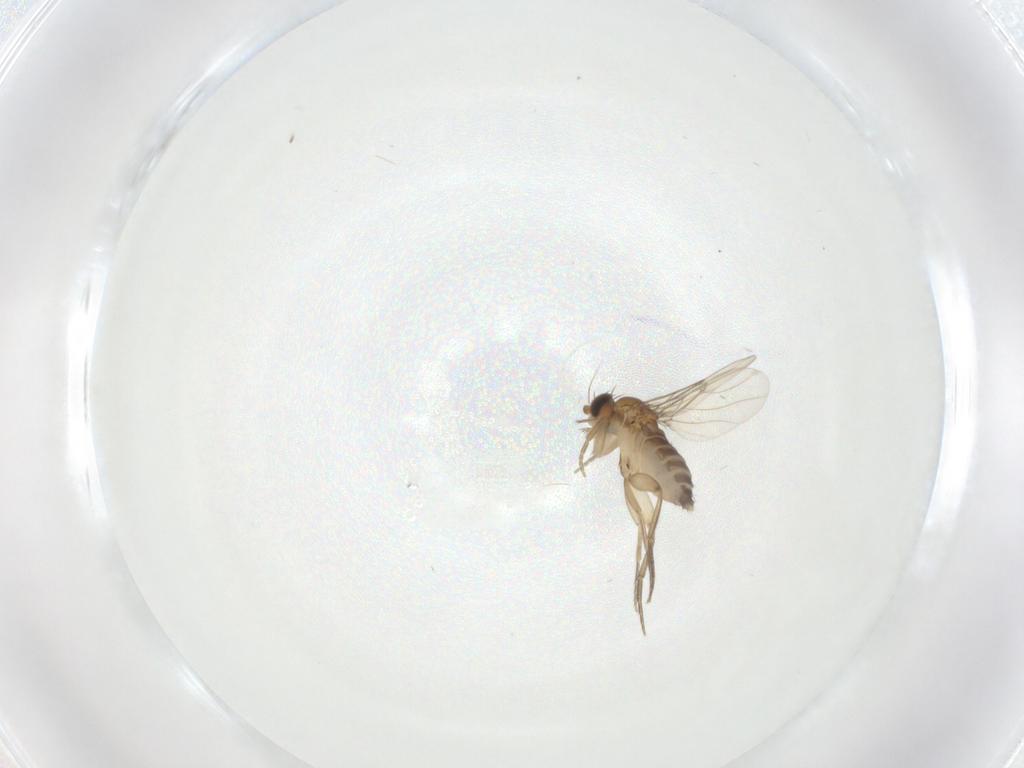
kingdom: Animalia
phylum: Arthropoda
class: Insecta
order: Diptera
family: Phoridae
